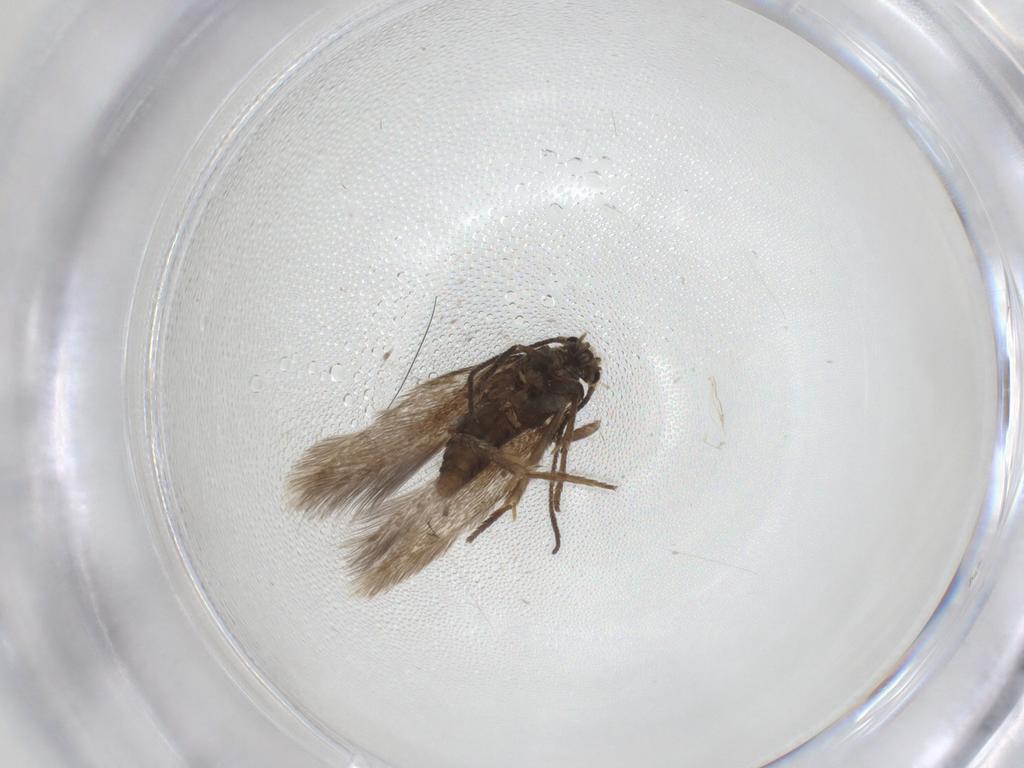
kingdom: Animalia
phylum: Arthropoda
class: Insecta
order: Lepidoptera
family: Nepticulidae
